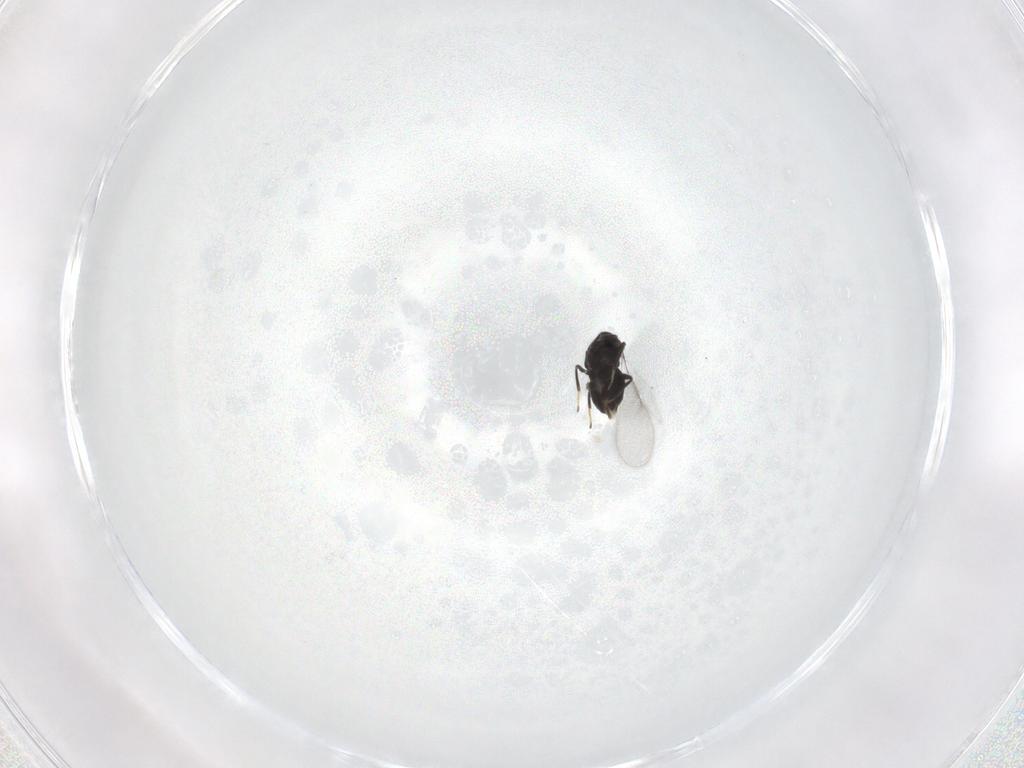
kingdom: Animalia
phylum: Arthropoda
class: Insecta
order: Hymenoptera
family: Aphelinidae
